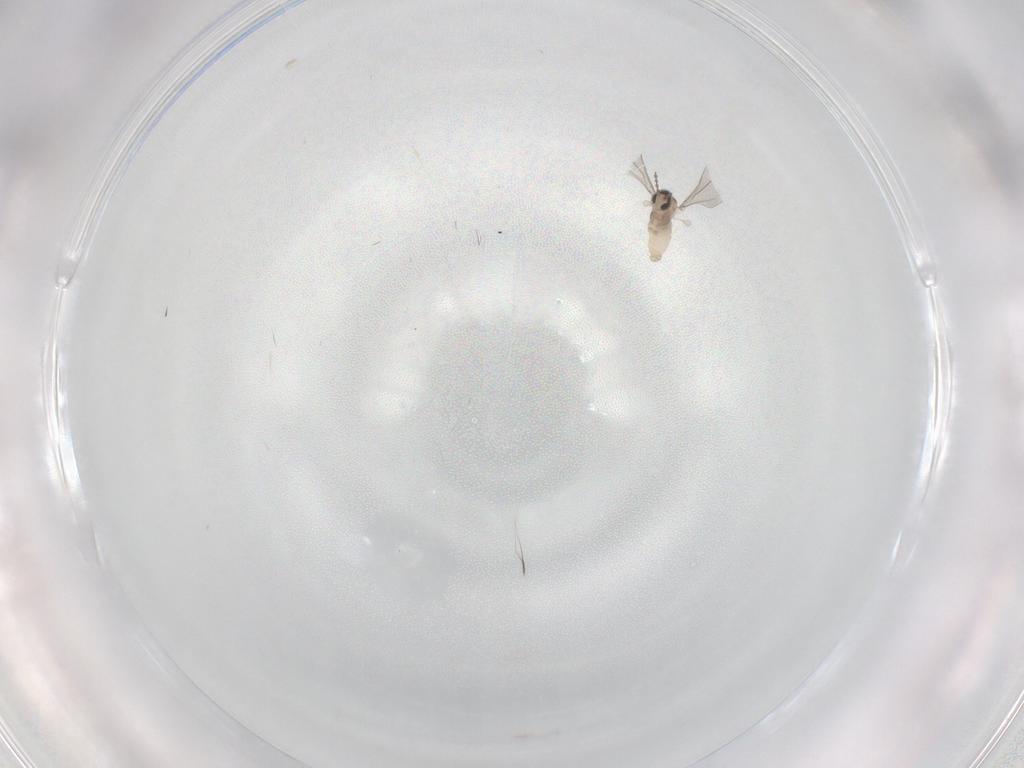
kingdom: Animalia
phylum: Arthropoda
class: Insecta
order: Diptera
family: Cecidomyiidae
